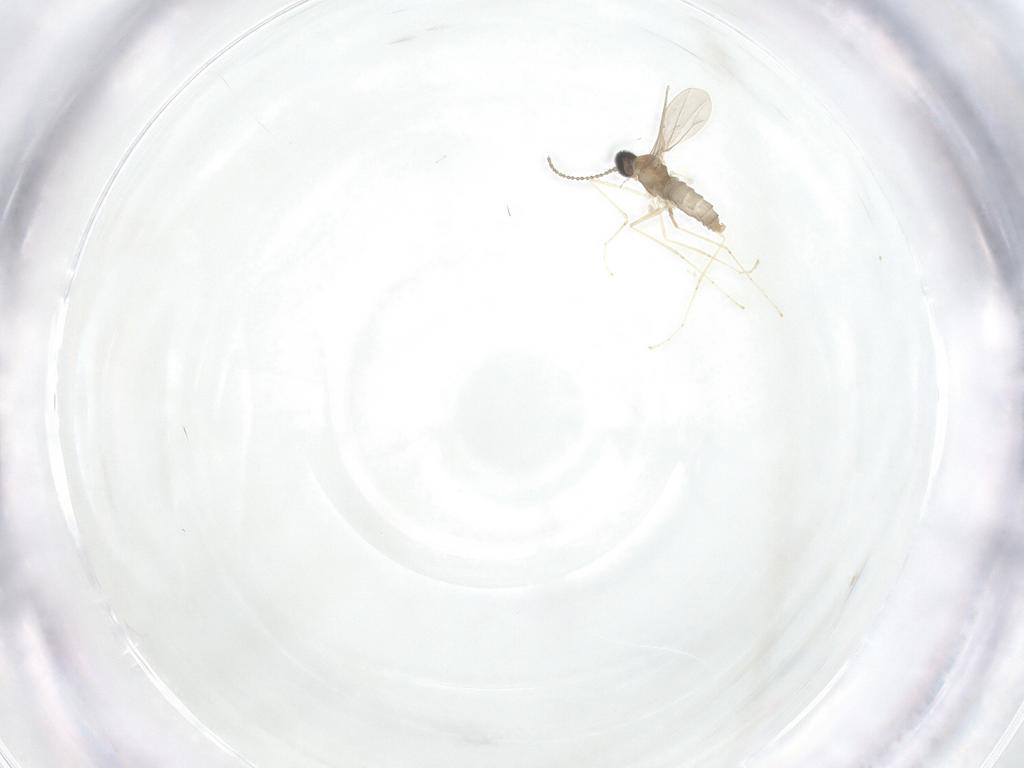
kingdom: Animalia
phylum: Arthropoda
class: Insecta
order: Diptera
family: Cecidomyiidae
